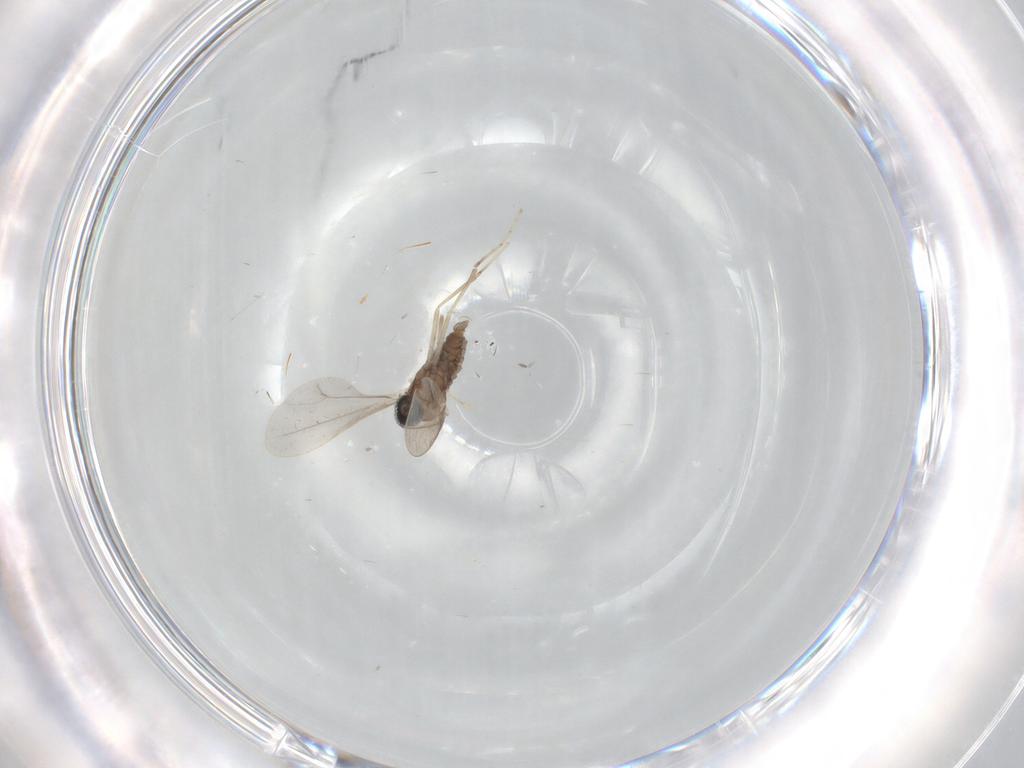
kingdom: Animalia
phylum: Arthropoda
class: Insecta
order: Diptera
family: Cecidomyiidae
